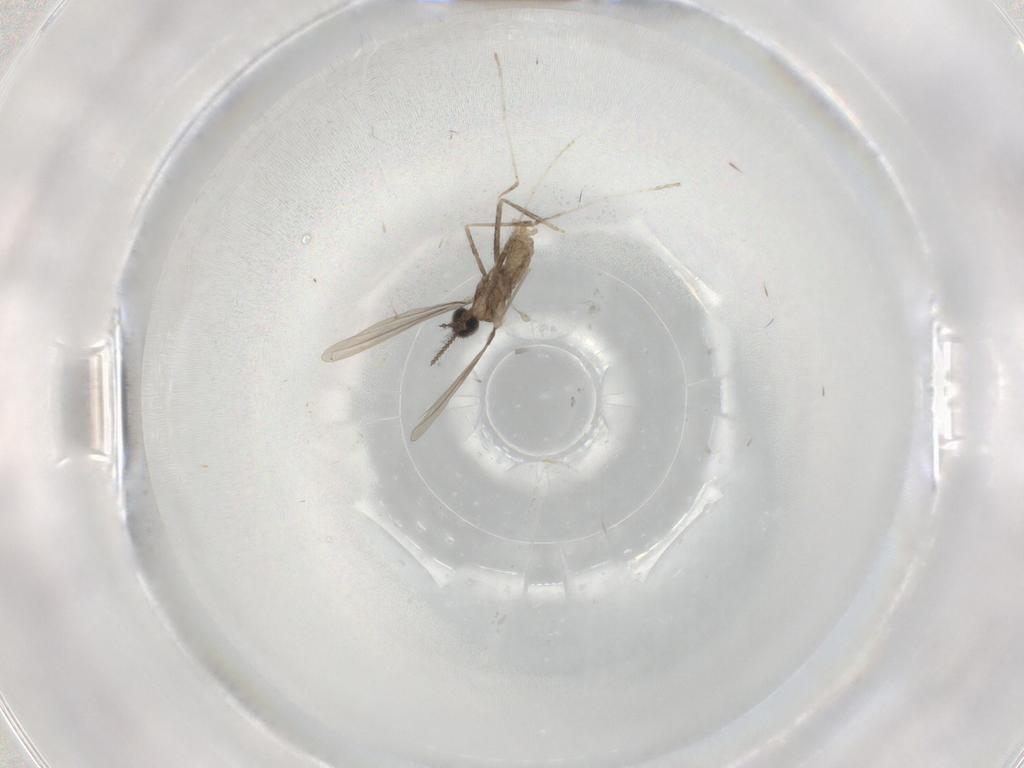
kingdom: Animalia
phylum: Arthropoda
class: Insecta
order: Diptera
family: Cecidomyiidae
